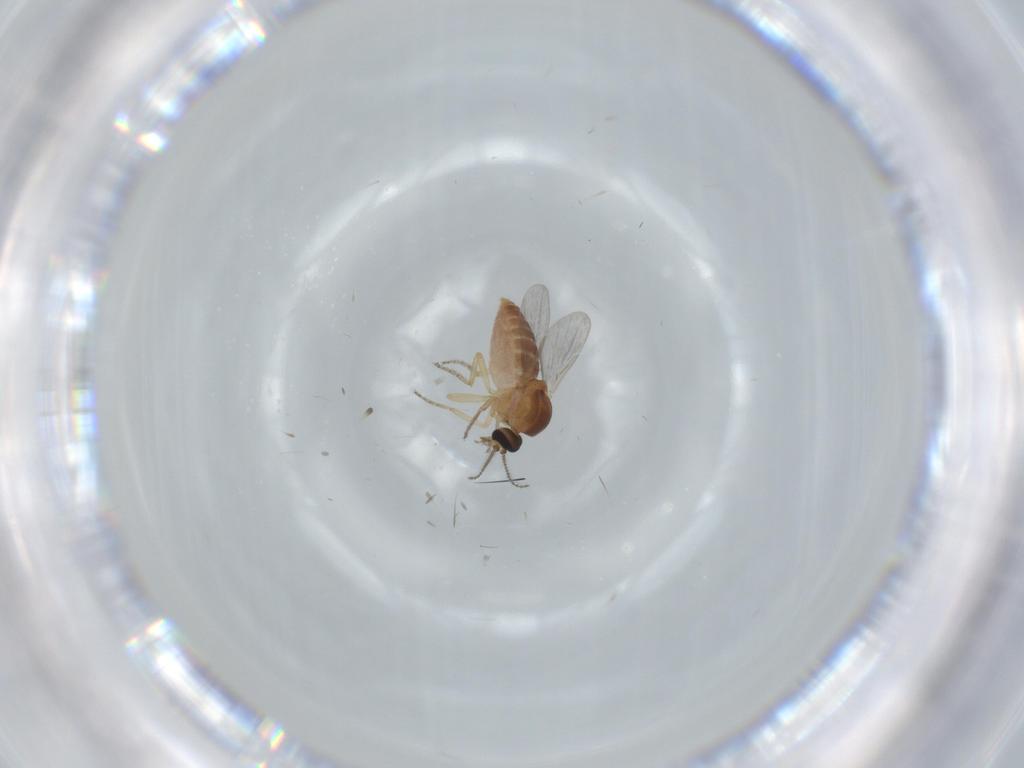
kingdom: Animalia
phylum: Arthropoda
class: Insecta
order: Diptera
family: Ceratopogonidae
